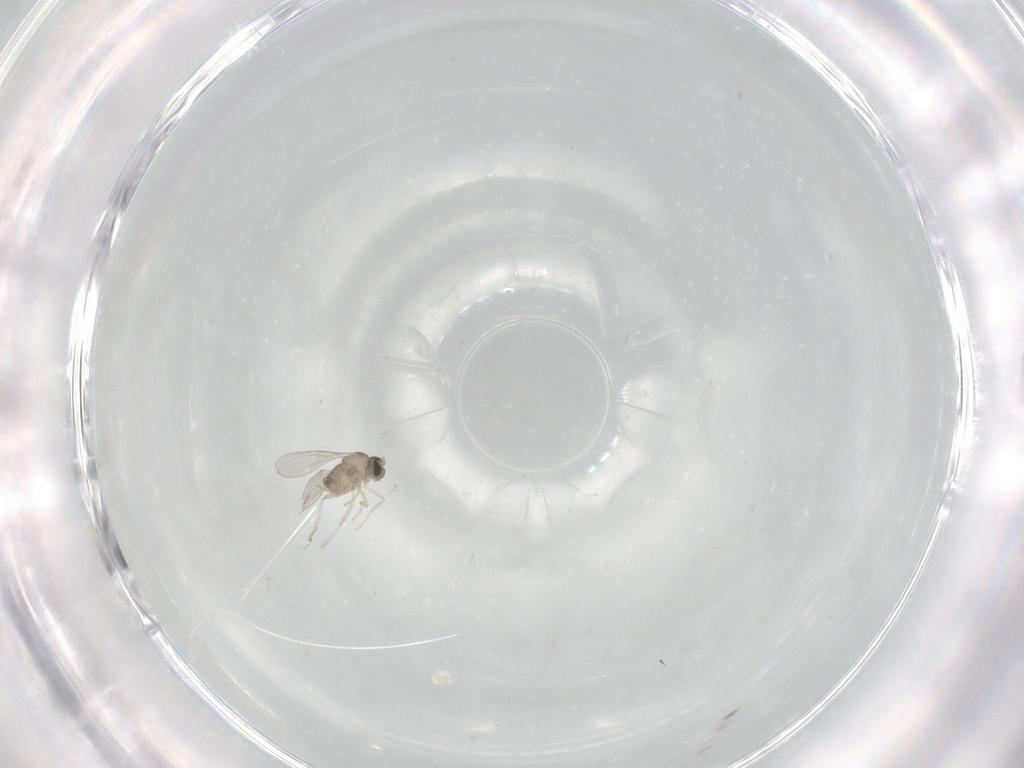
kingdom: Animalia
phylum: Arthropoda
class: Insecta
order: Diptera
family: Cecidomyiidae
